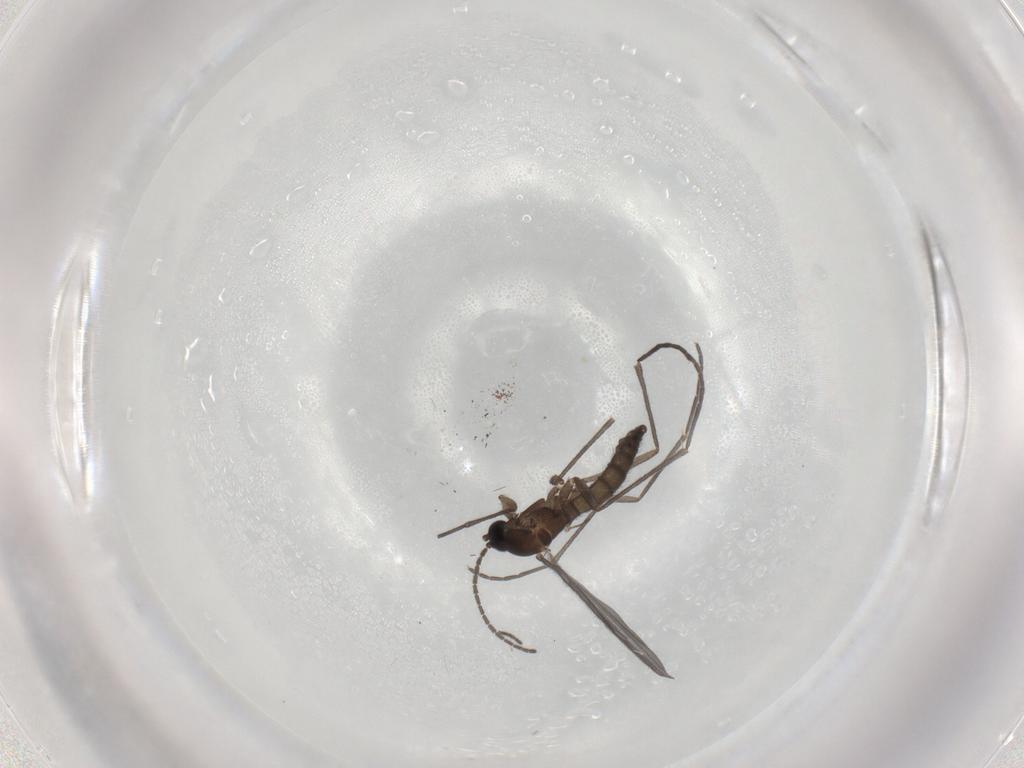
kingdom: Animalia
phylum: Arthropoda
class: Insecta
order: Diptera
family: Sciaridae
